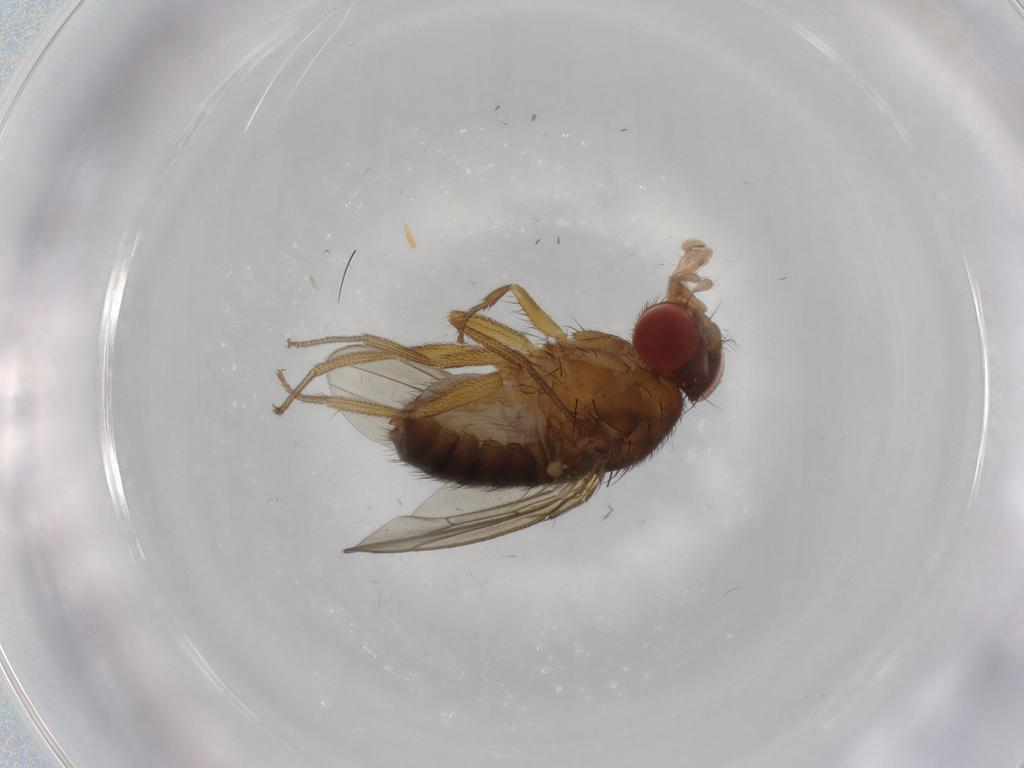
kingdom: Animalia
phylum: Arthropoda
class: Insecta
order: Diptera
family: Drosophilidae
